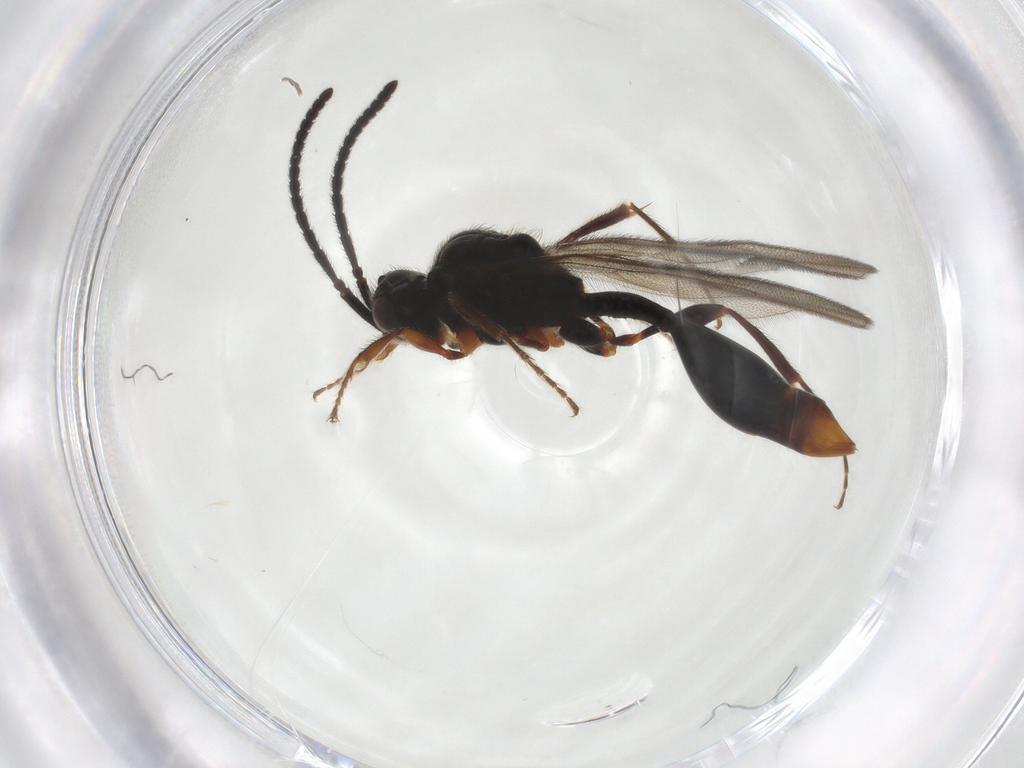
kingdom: Animalia
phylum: Arthropoda
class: Insecta
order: Hymenoptera
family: Diapriidae
